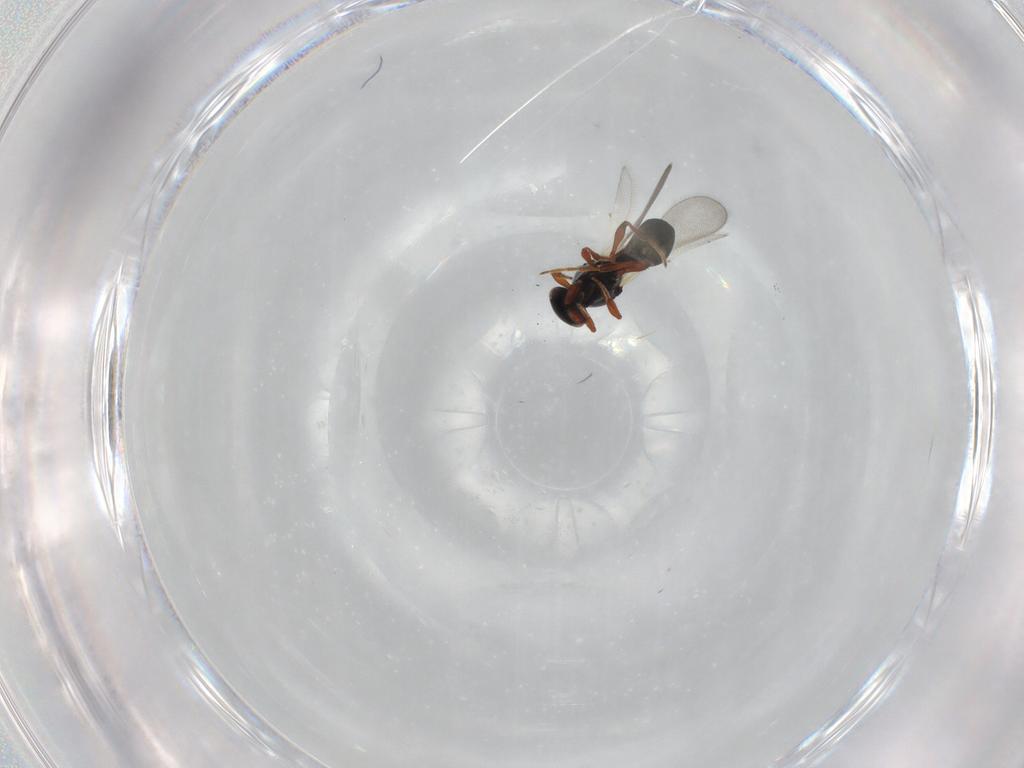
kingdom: Animalia
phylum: Arthropoda
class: Insecta
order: Hymenoptera
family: Platygastridae
